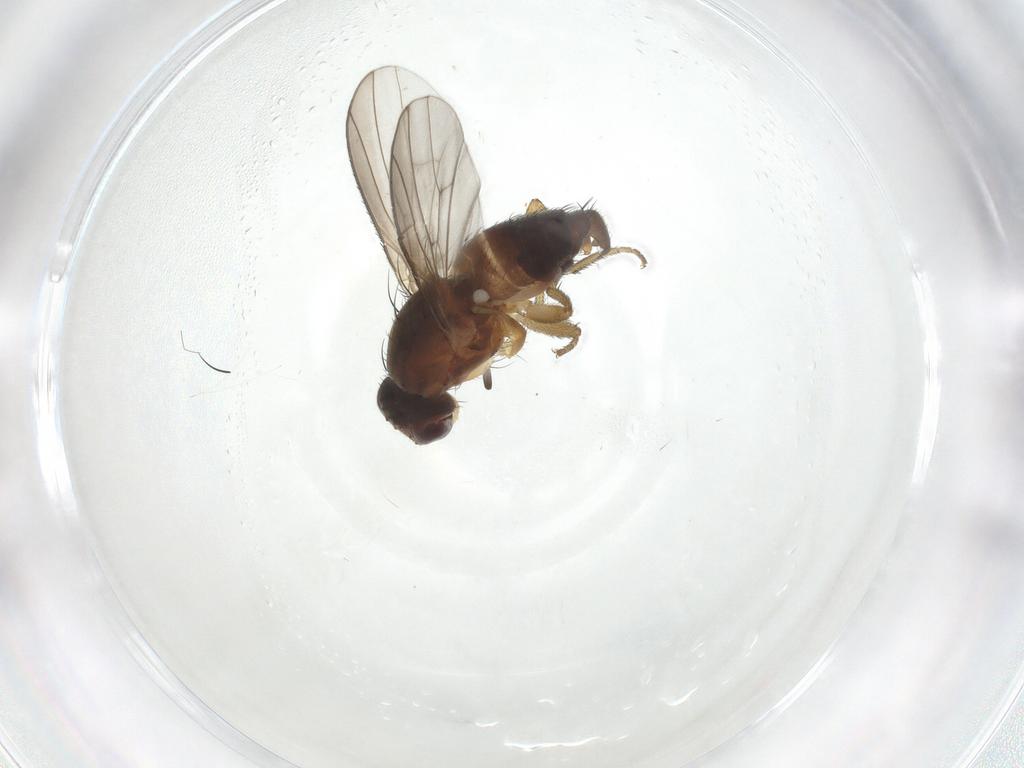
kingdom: Animalia
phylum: Arthropoda
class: Insecta
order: Diptera
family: Heleomyzidae
